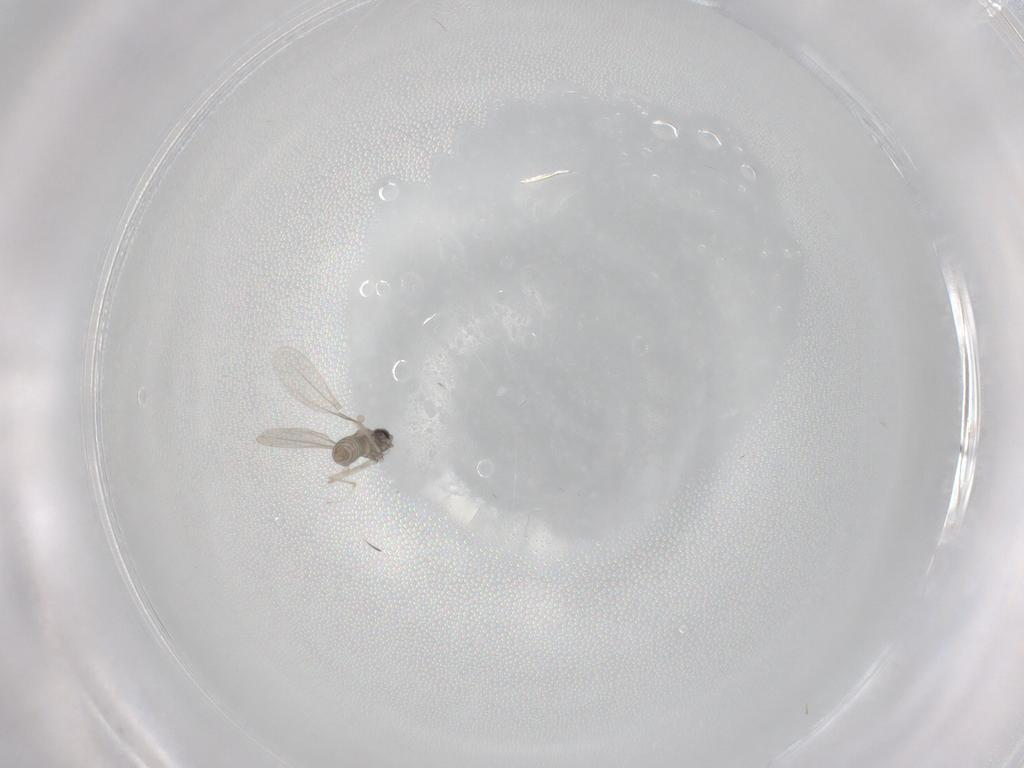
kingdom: Animalia
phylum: Arthropoda
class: Insecta
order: Diptera
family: Cecidomyiidae
